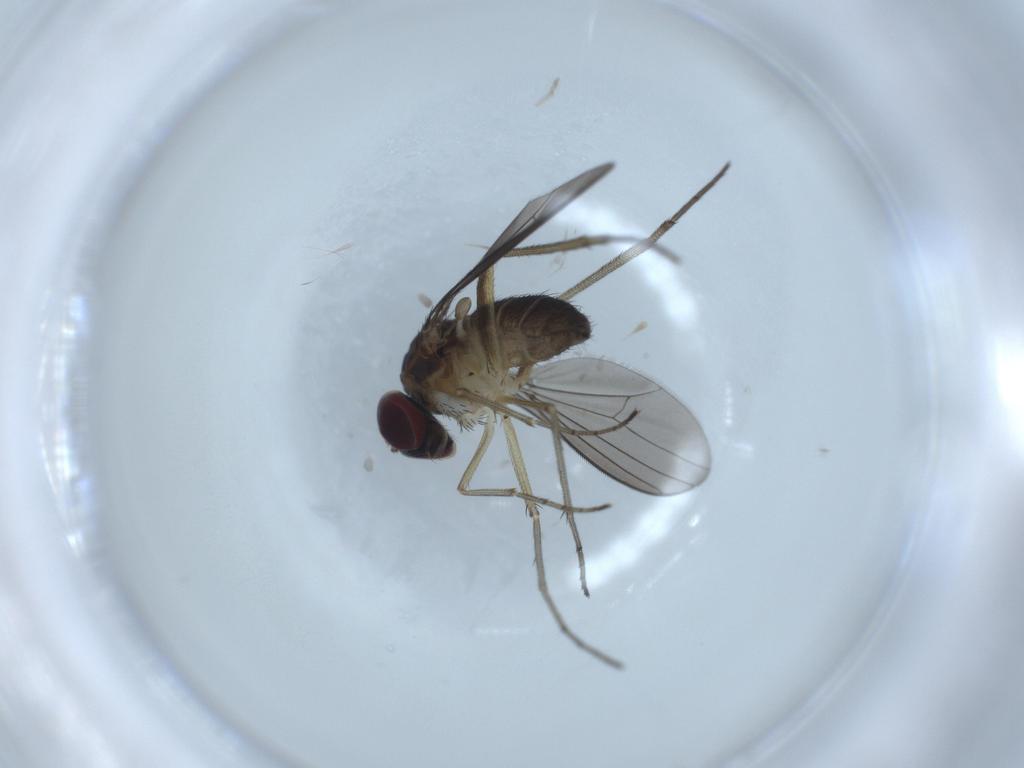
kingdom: Animalia
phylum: Arthropoda
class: Insecta
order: Diptera
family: Dolichopodidae
